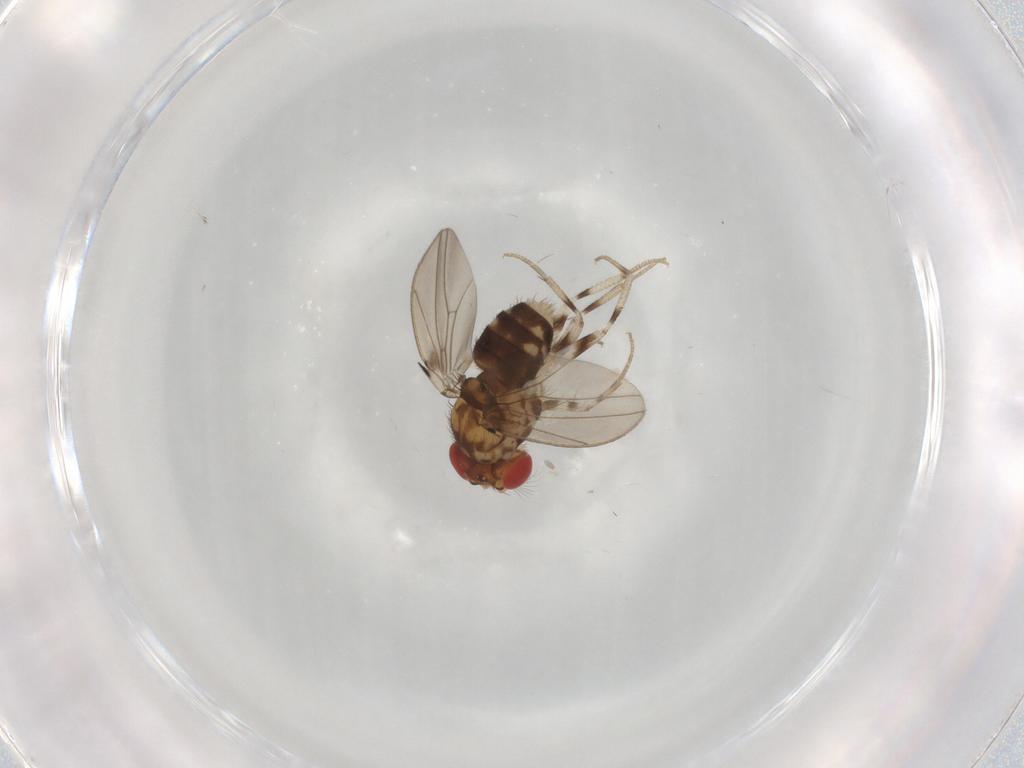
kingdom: Animalia
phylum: Arthropoda
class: Insecta
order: Diptera
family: Drosophilidae
